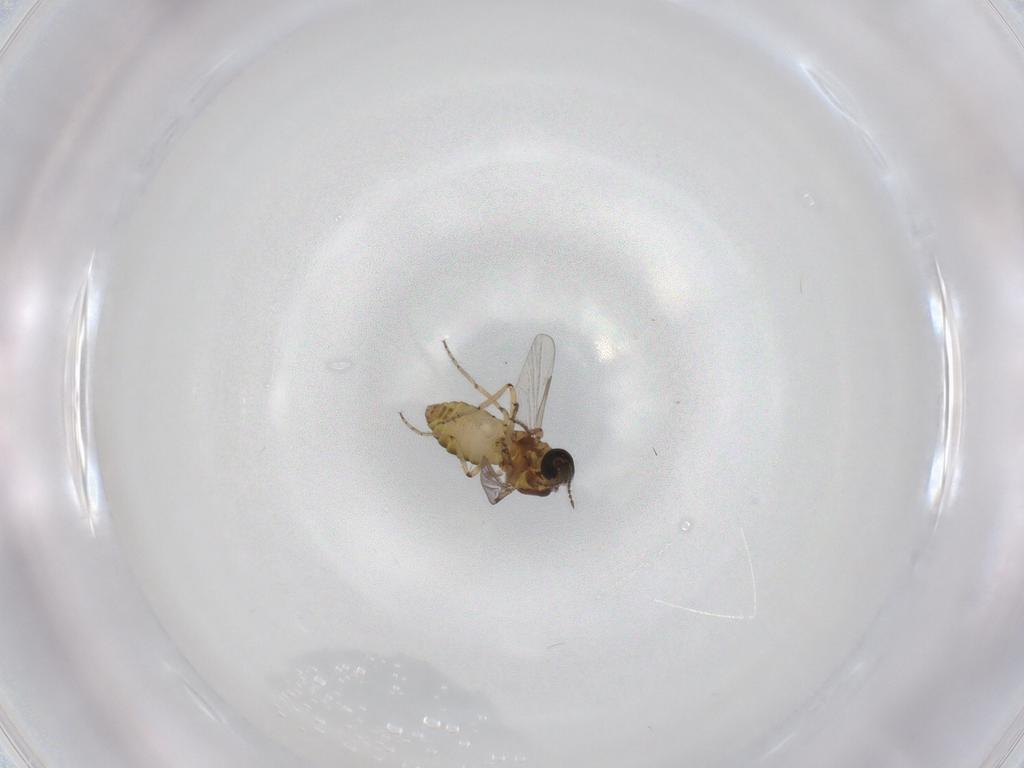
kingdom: Animalia
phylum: Arthropoda
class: Insecta
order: Diptera
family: Ceratopogonidae
